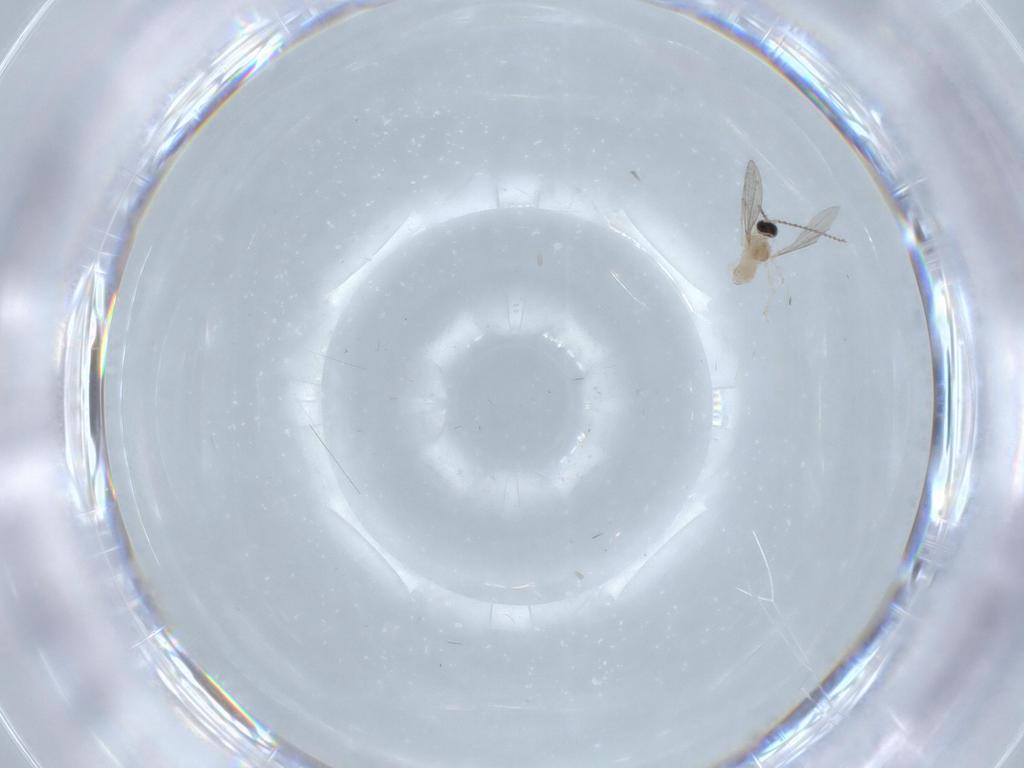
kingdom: Animalia
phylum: Arthropoda
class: Insecta
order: Diptera
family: Cecidomyiidae
